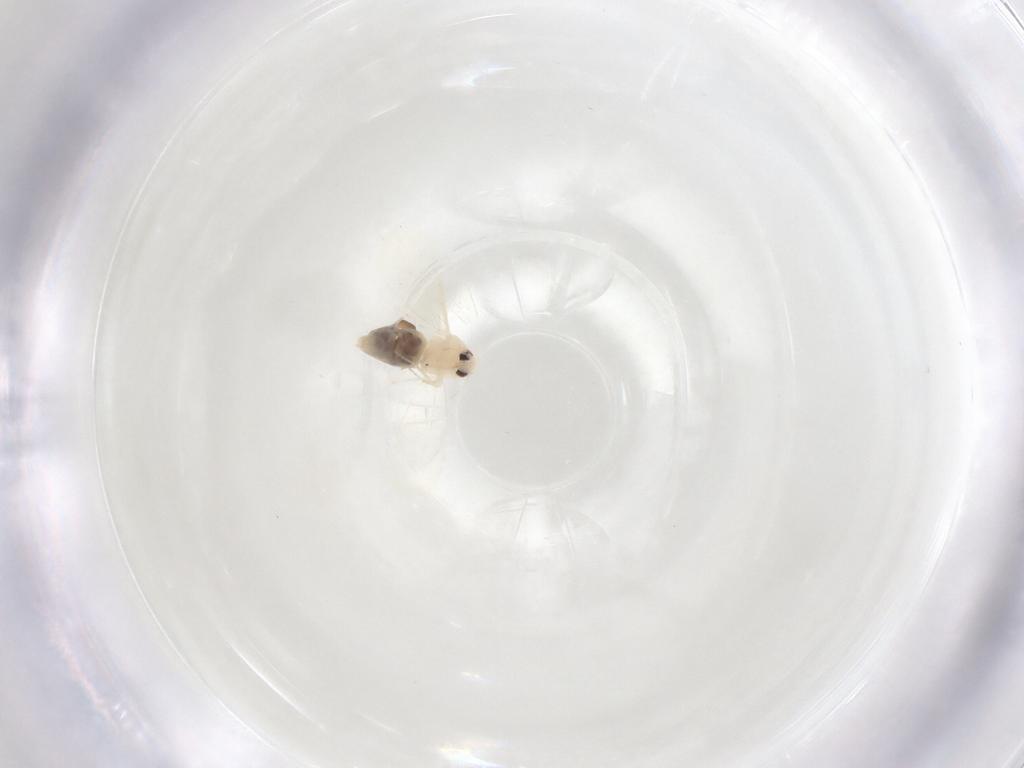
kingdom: Animalia
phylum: Arthropoda
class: Insecta
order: Hemiptera
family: Aleyrodidae
